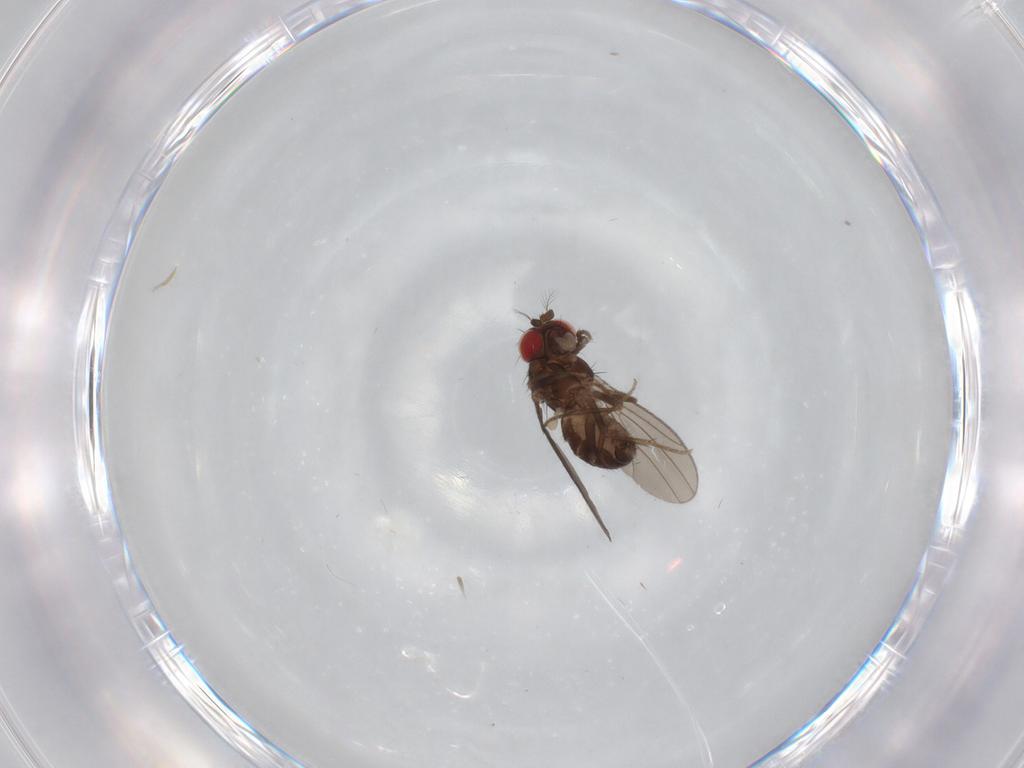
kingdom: Animalia
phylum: Arthropoda
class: Insecta
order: Diptera
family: Drosophilidae
